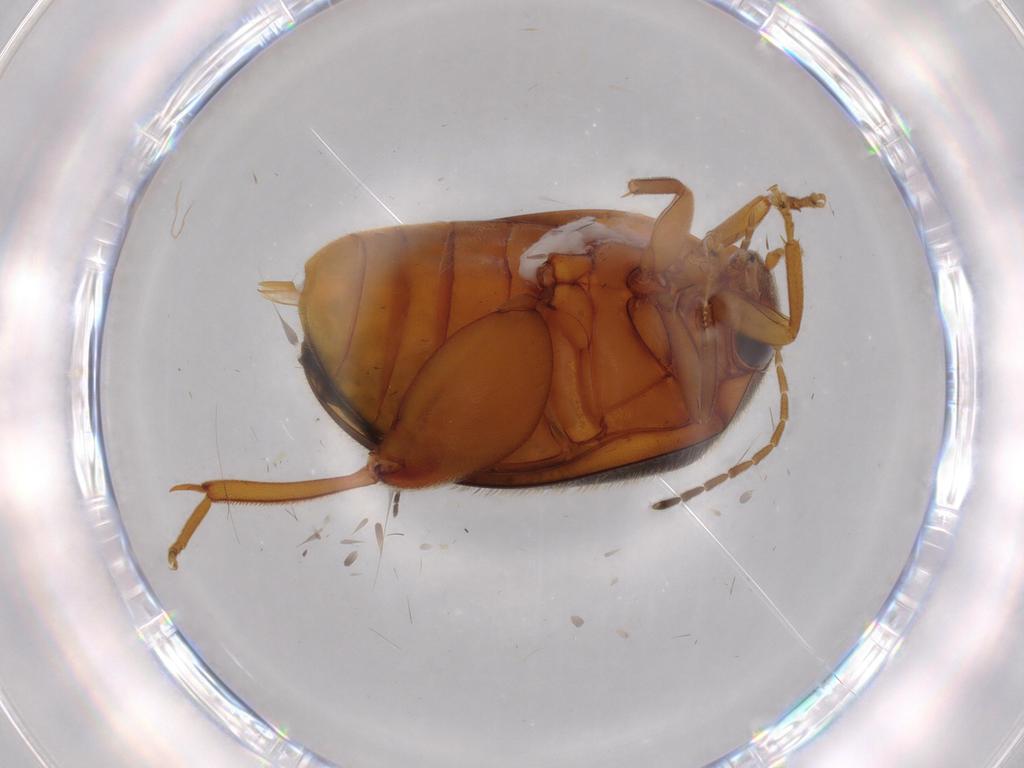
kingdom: Animalia
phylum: Arthropoda
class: Insecta
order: Coleoptera
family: Scirtidae
